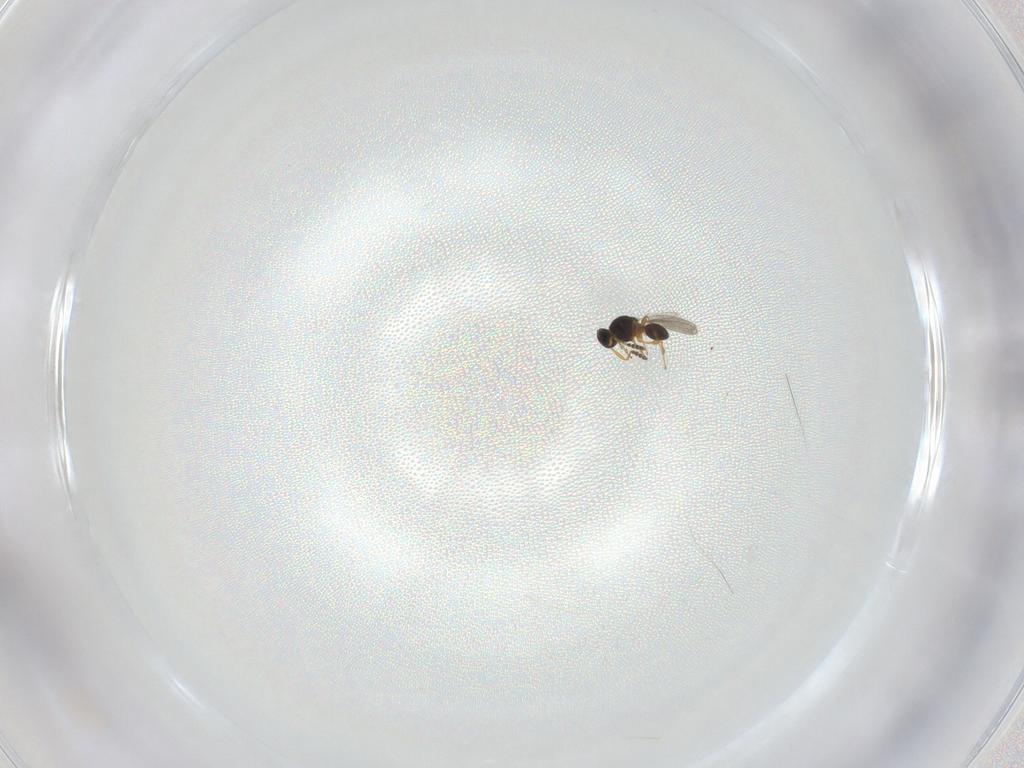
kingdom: Animalia
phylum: Arthropoda
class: Insecta
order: Hymenoptera
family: Platygastridae
